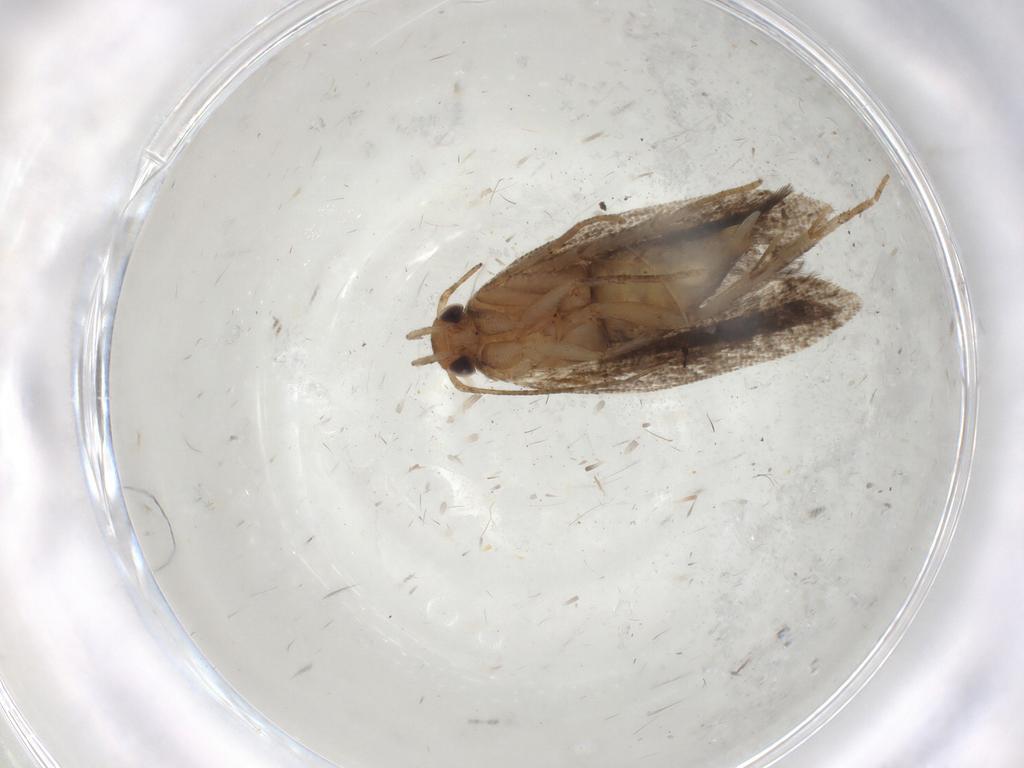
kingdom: Animalia
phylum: Arthropoda
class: Insecta
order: Lepidoptera
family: Gelechiidae
